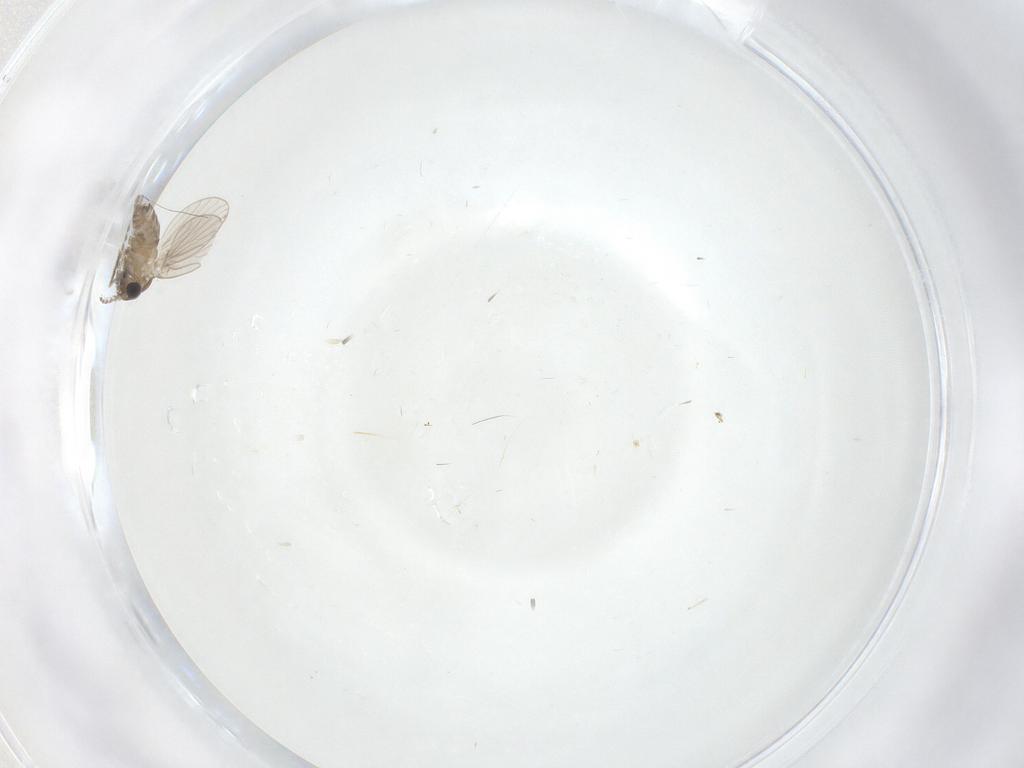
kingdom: Animalia
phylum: Arthropoda
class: Insecta
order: Diptera
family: Phoridae
